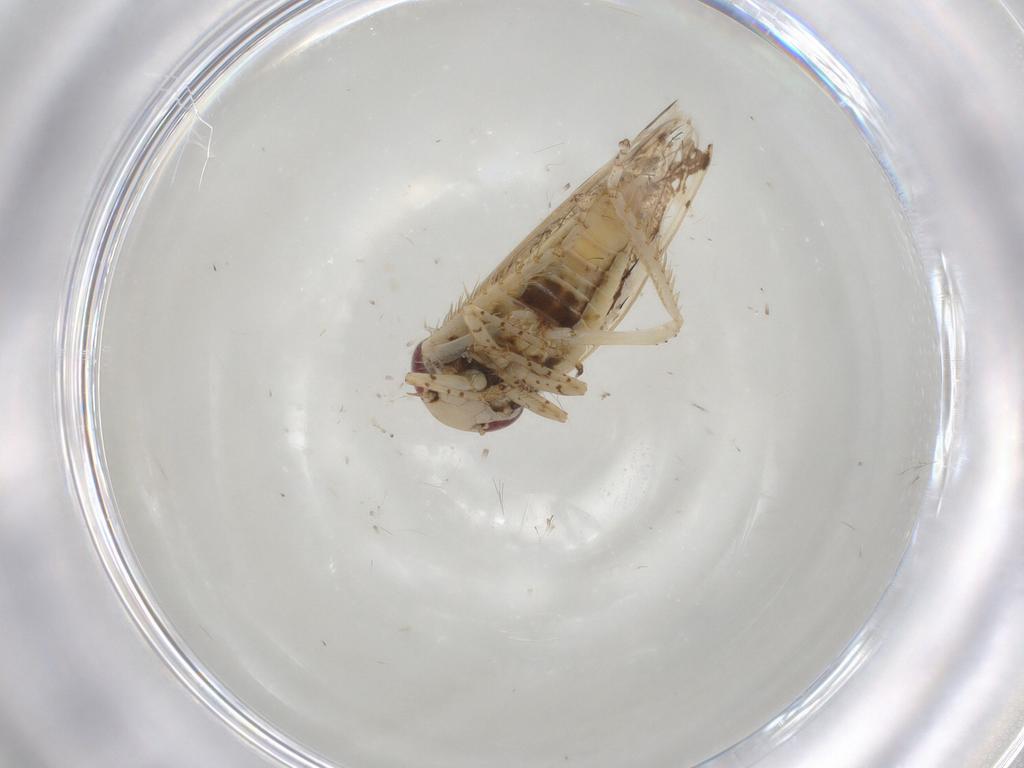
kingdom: Animalia
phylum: Arthropoda
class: Insecta
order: Hemiptera
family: Cicadellidae
